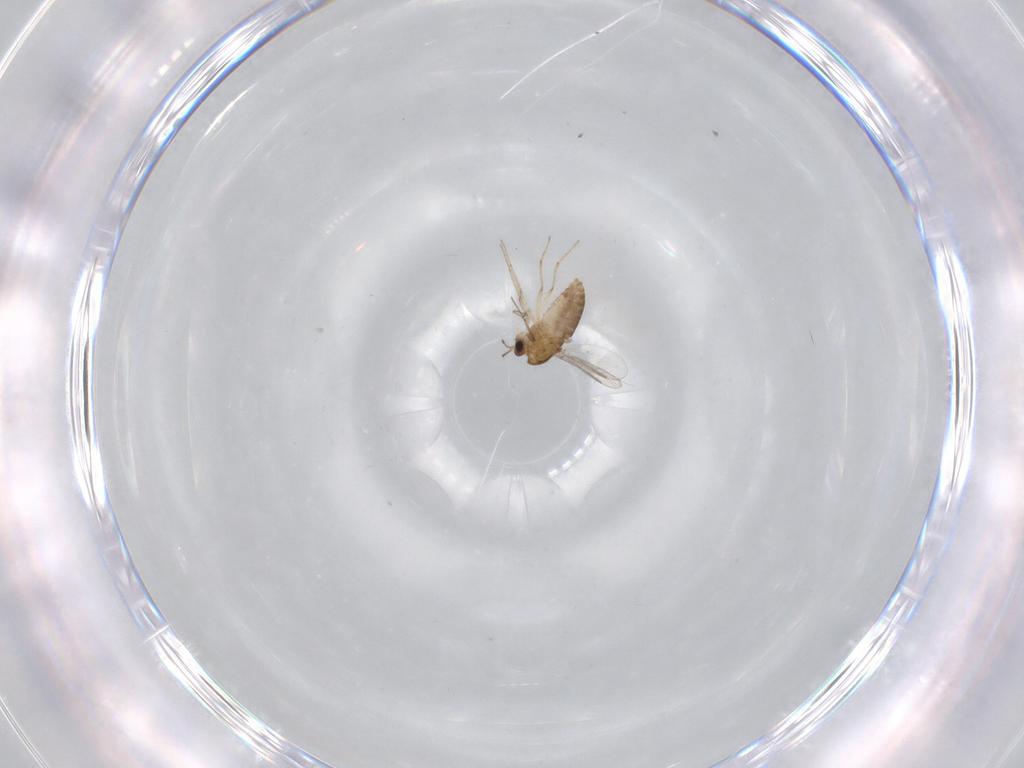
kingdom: Animalia
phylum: Arthropoda
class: Insecta
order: Diptera
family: Chironomidae
